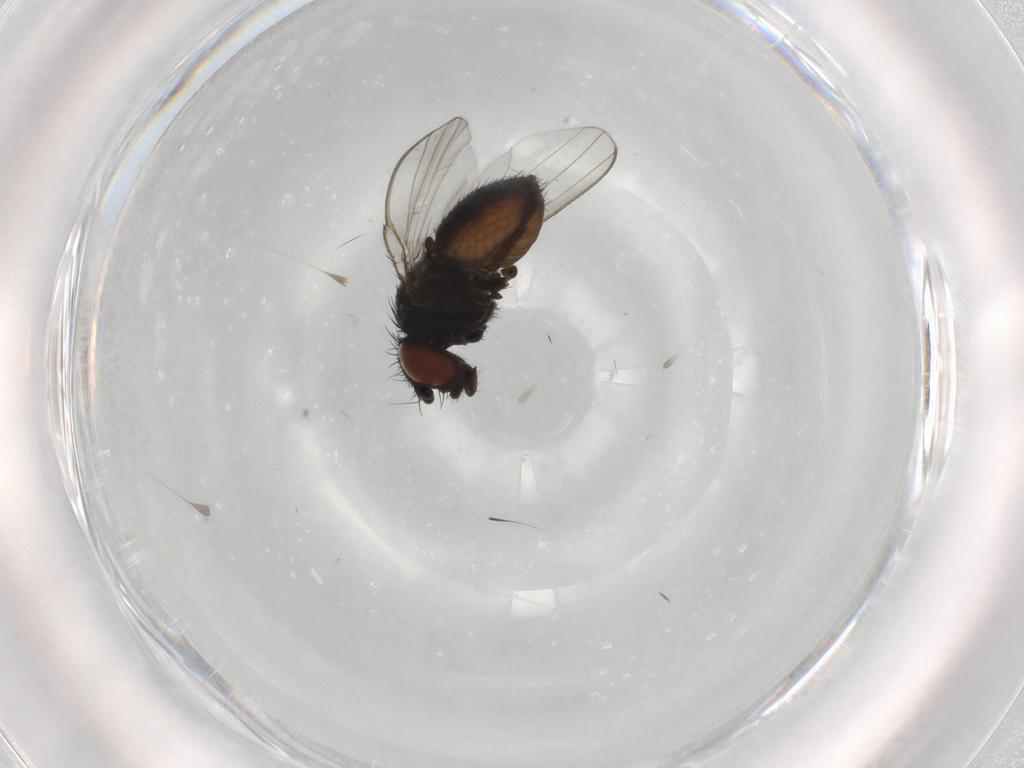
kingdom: Animalia
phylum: Arthropoda
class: Insecta
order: Diptera
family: Milichiidae
